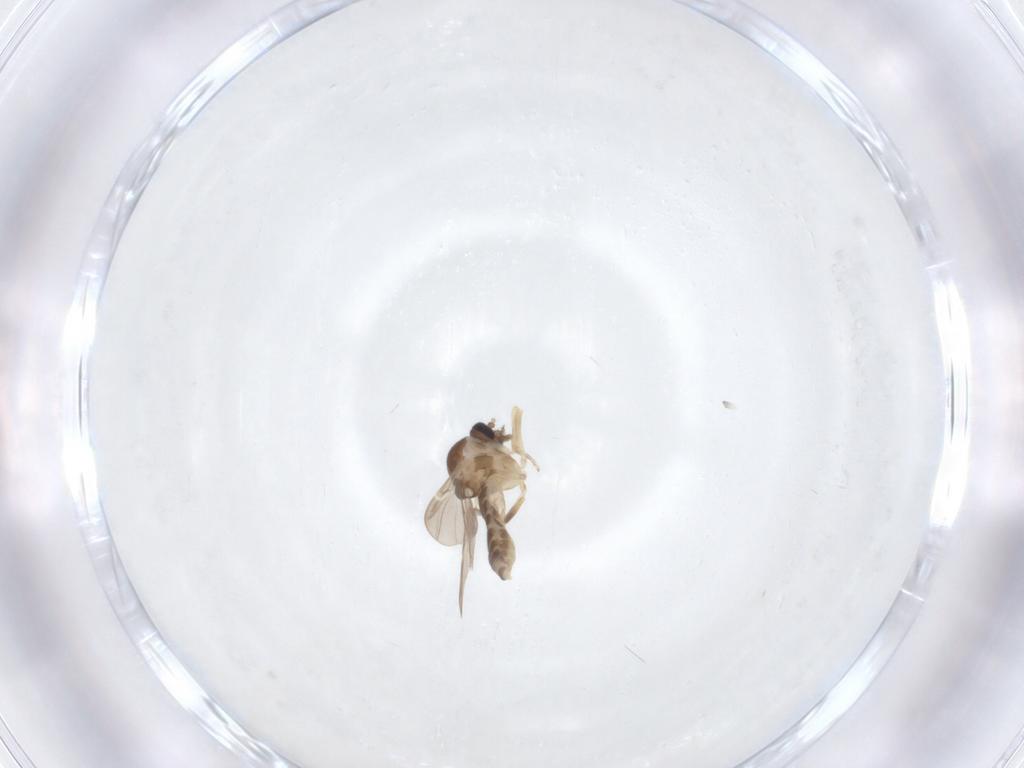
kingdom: Animalia
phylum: Arthropoda
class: Insecta
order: Diptera
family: Ceratopogonidae
